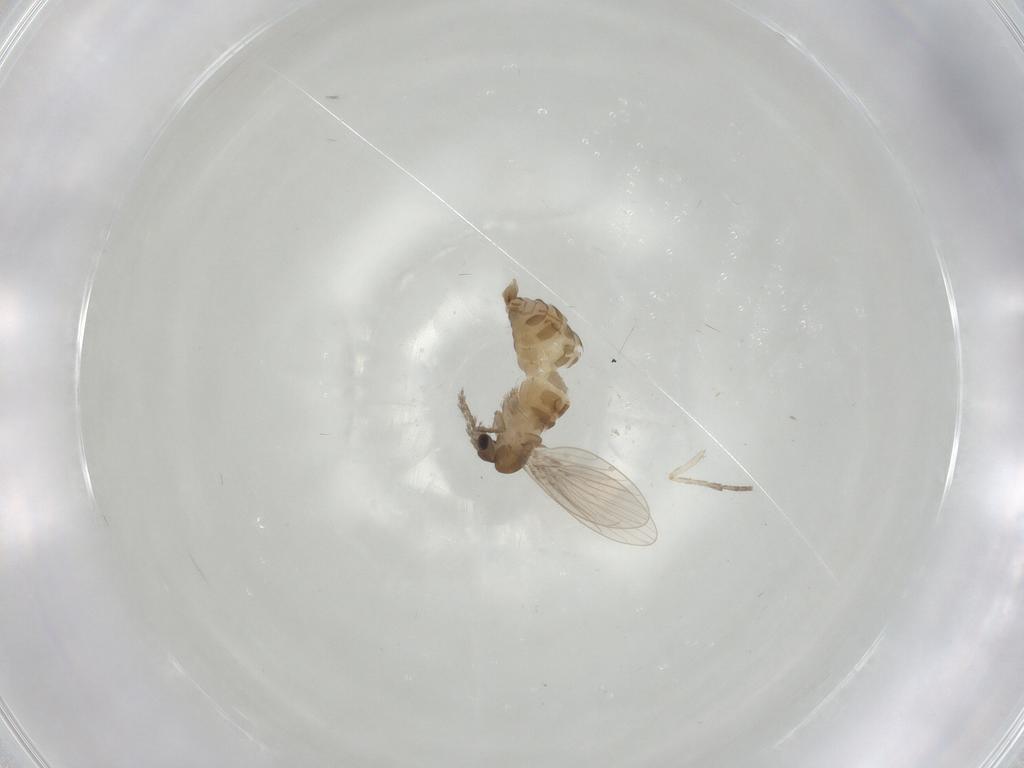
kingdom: Animalia
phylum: Arthropoda
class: Insecta
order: Diptera
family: Cecidomyiidae
